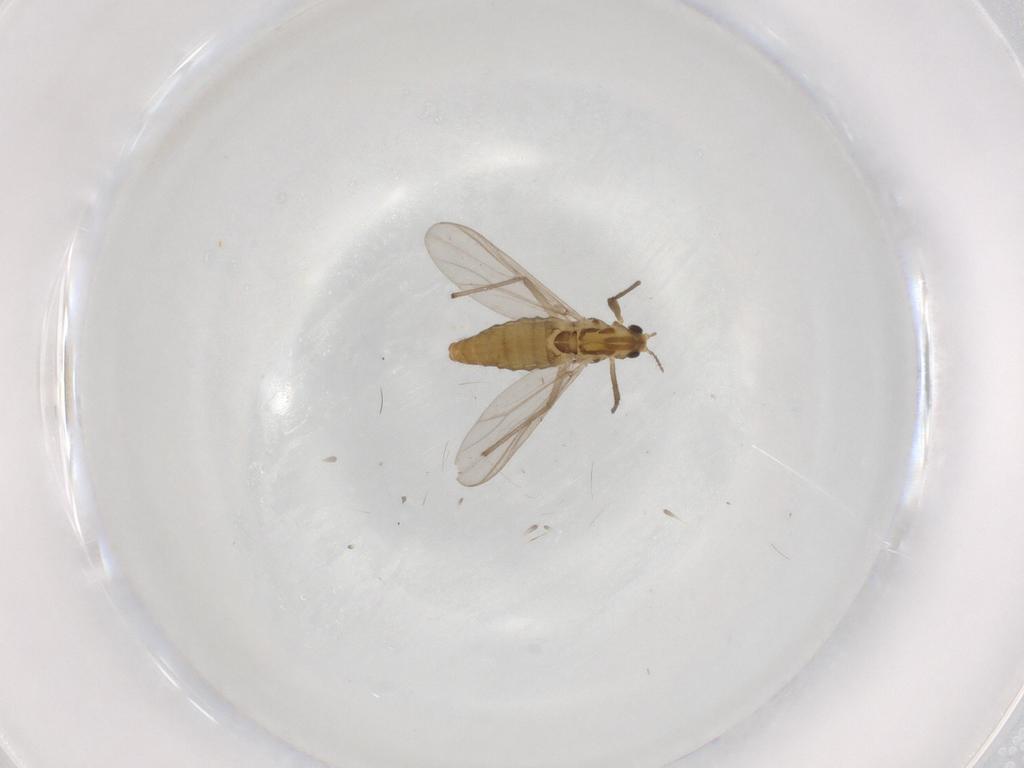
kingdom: Animalia
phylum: Arthropoda
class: Insecta
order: Diptera
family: Chironomidae
